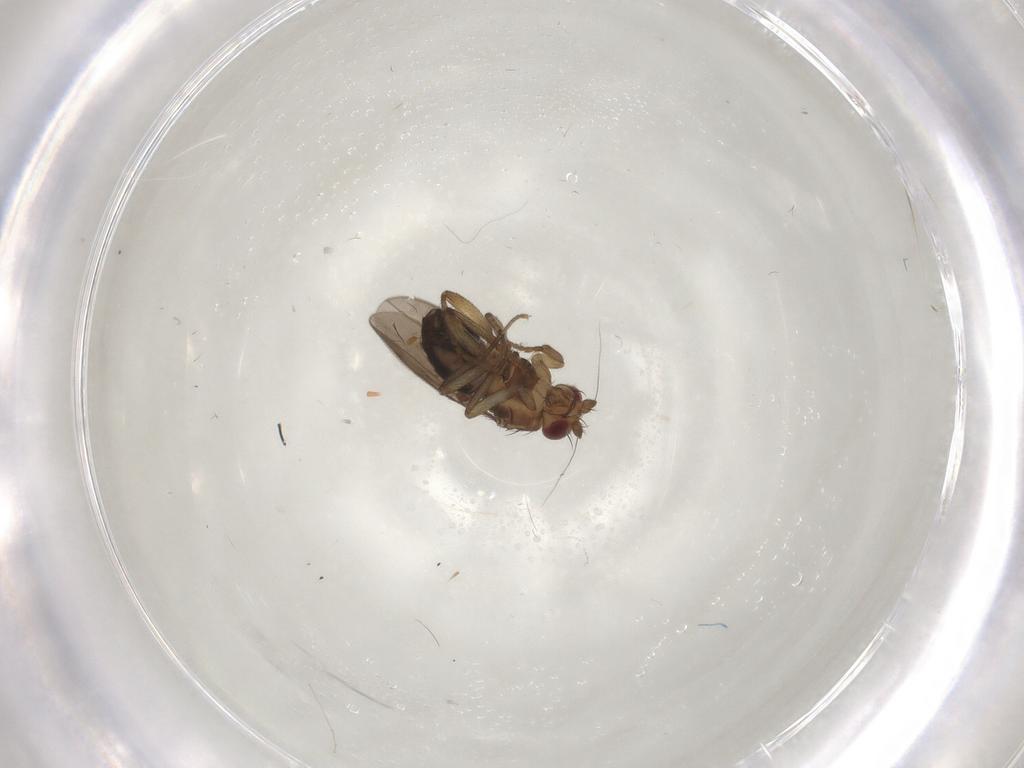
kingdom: Animalia
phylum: Arthropoda
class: Insecta
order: Diptera
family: Sphaeroceridae
